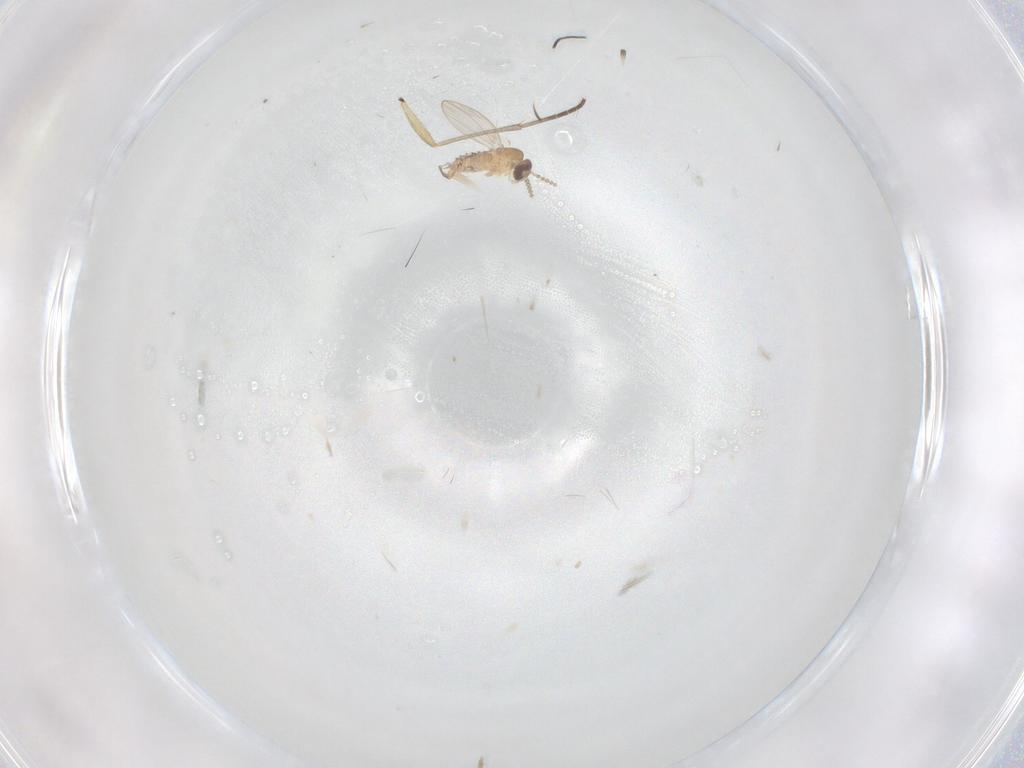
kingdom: Animalia
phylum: Arthropoda
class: Insecta
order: Diptera
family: Sciaridae
